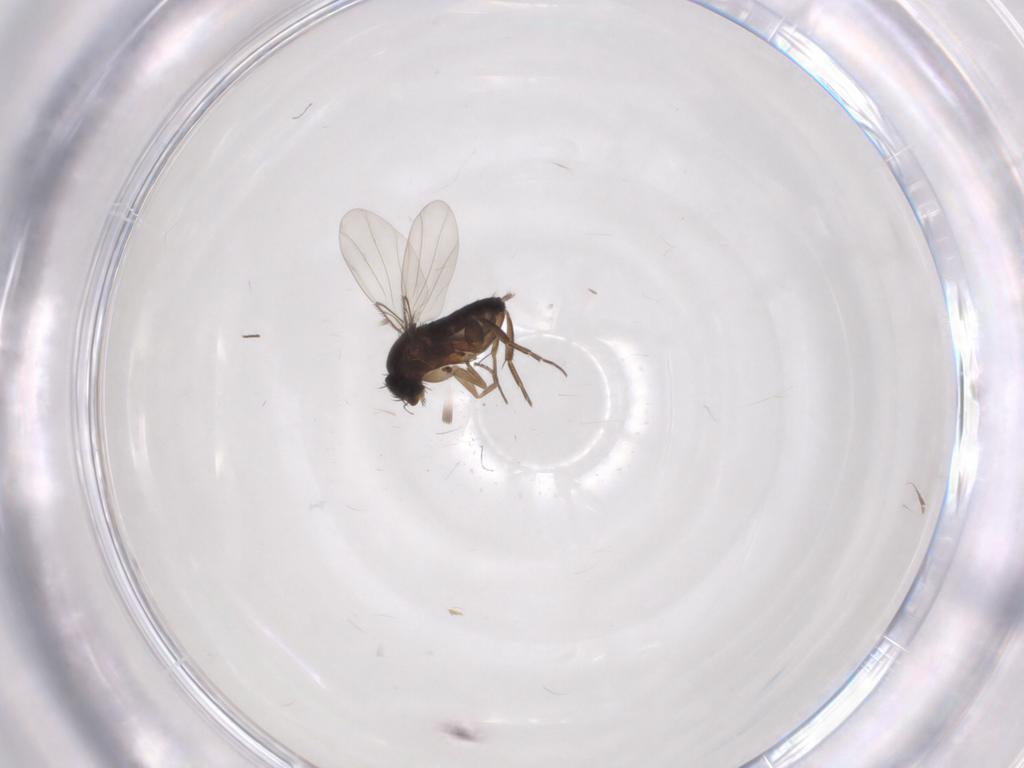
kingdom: Animalia
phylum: Arthropoda
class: Insecta
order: Diptera
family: Phoridae
